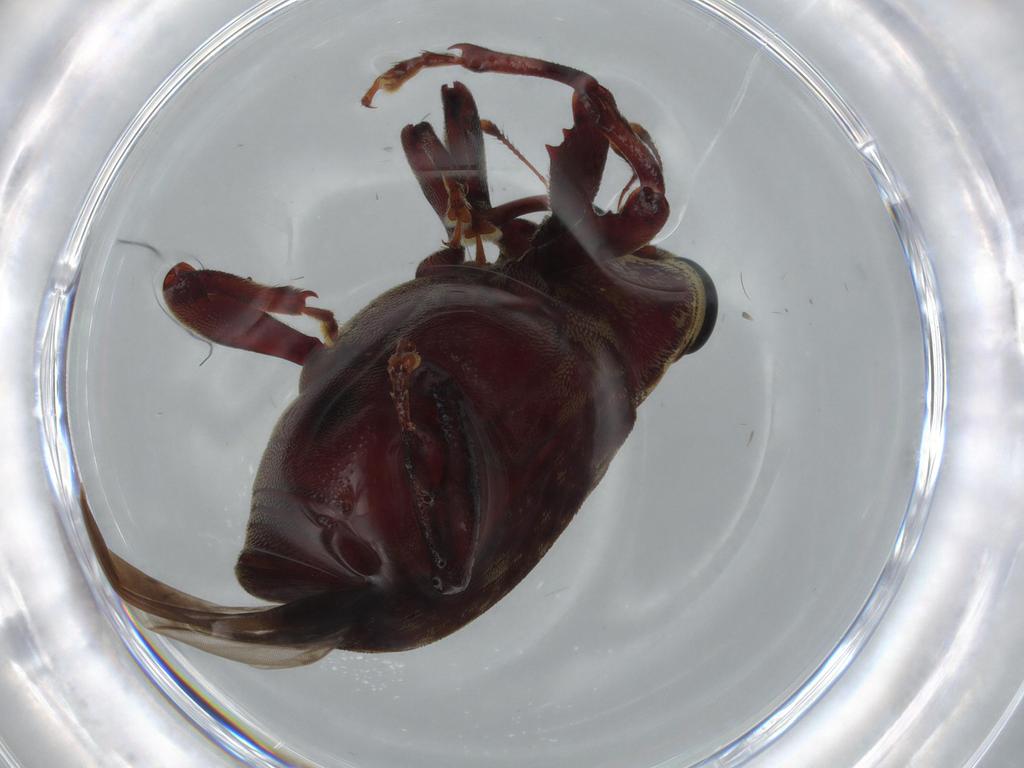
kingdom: Animalia
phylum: Arthropoda
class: Insecta
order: Coleoptera
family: Curculionidae
